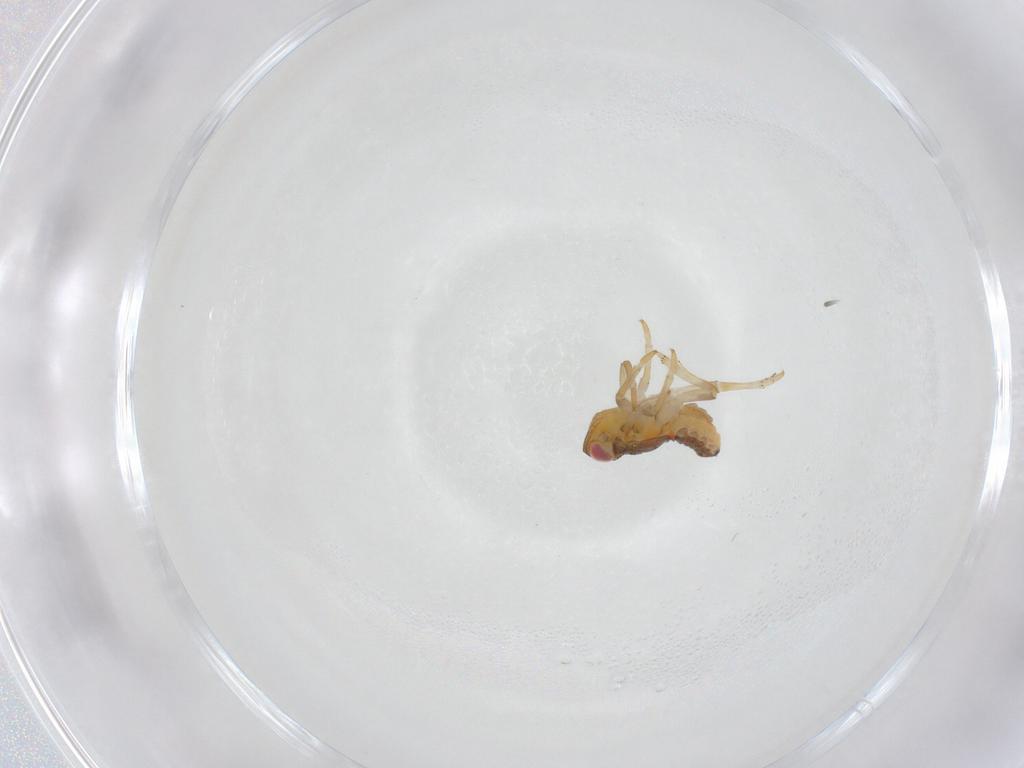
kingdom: Animalia
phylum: Arthropoda
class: Insecta
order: Hemiptera
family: Issidae
